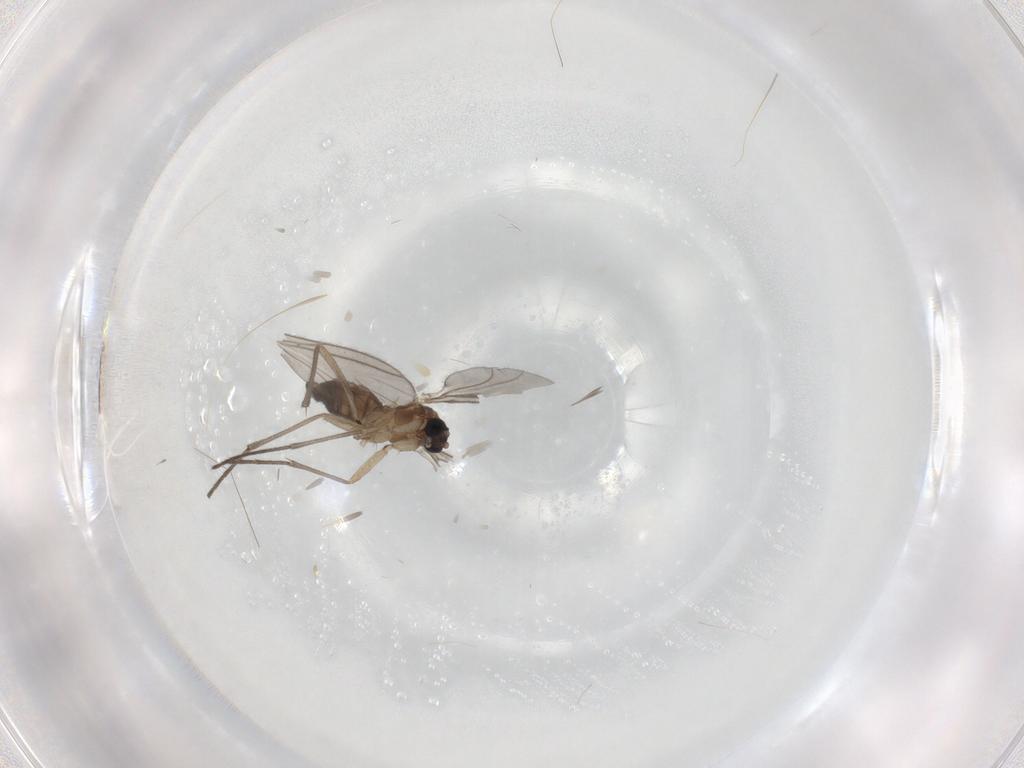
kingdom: Animalia
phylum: Arthropoda
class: Insecta
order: Diptera
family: Sciaridae
